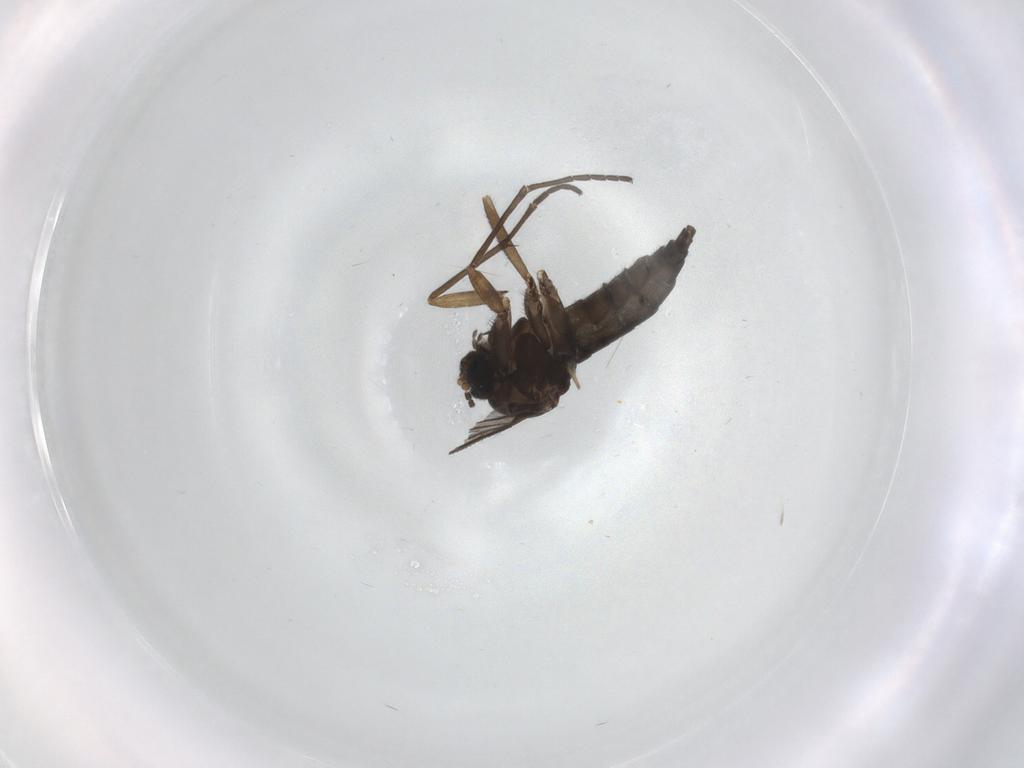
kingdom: Animalia
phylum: Arthropoda
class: Insecta
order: Diptera
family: Sciaridae
